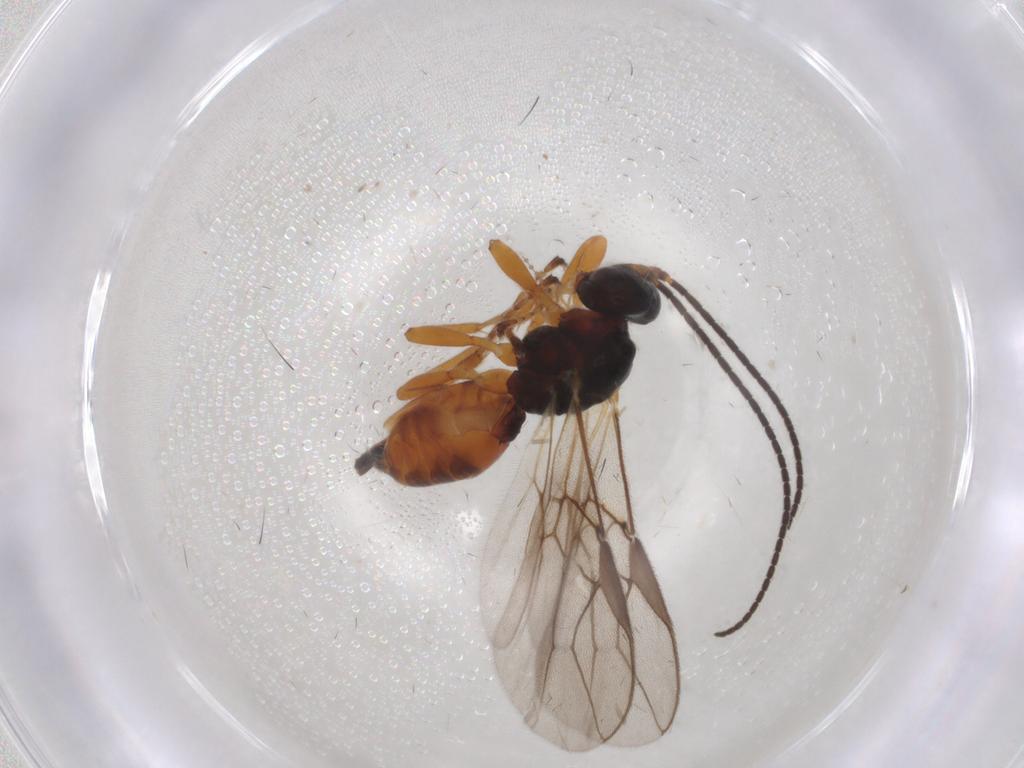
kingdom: Animalia
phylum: Arthropoda
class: Insecta
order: Hymenoptera
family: Braconidae
